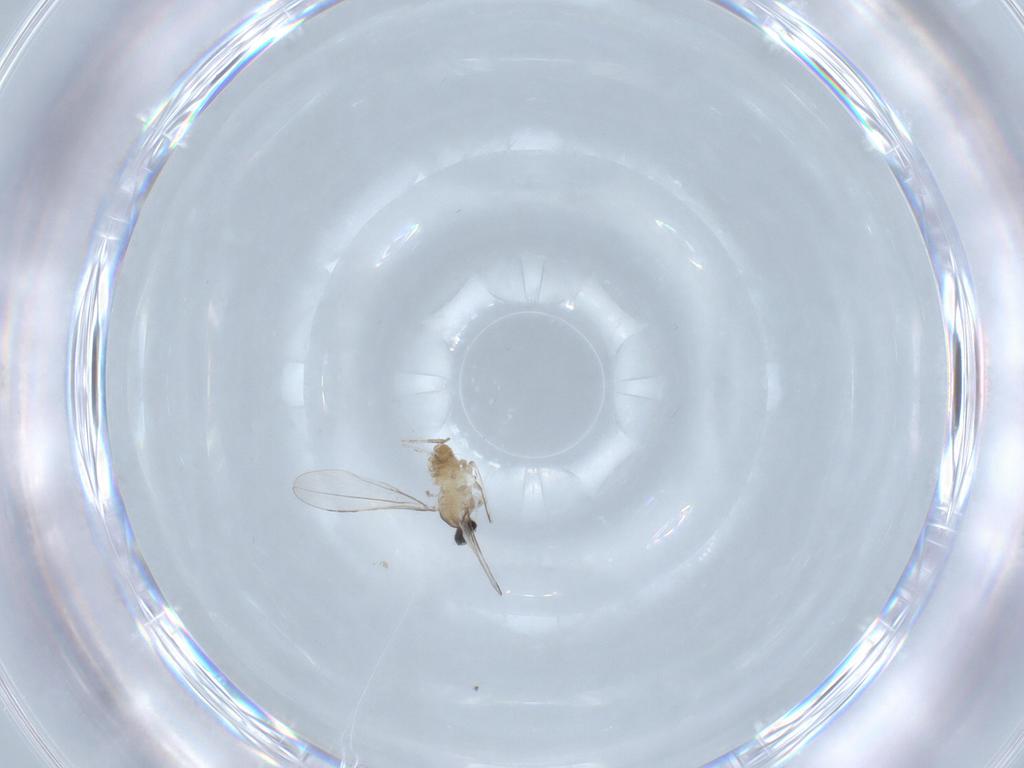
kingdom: Animalia
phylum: Arthropoda
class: Insecta
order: Diptera
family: Cecidomyiidae
